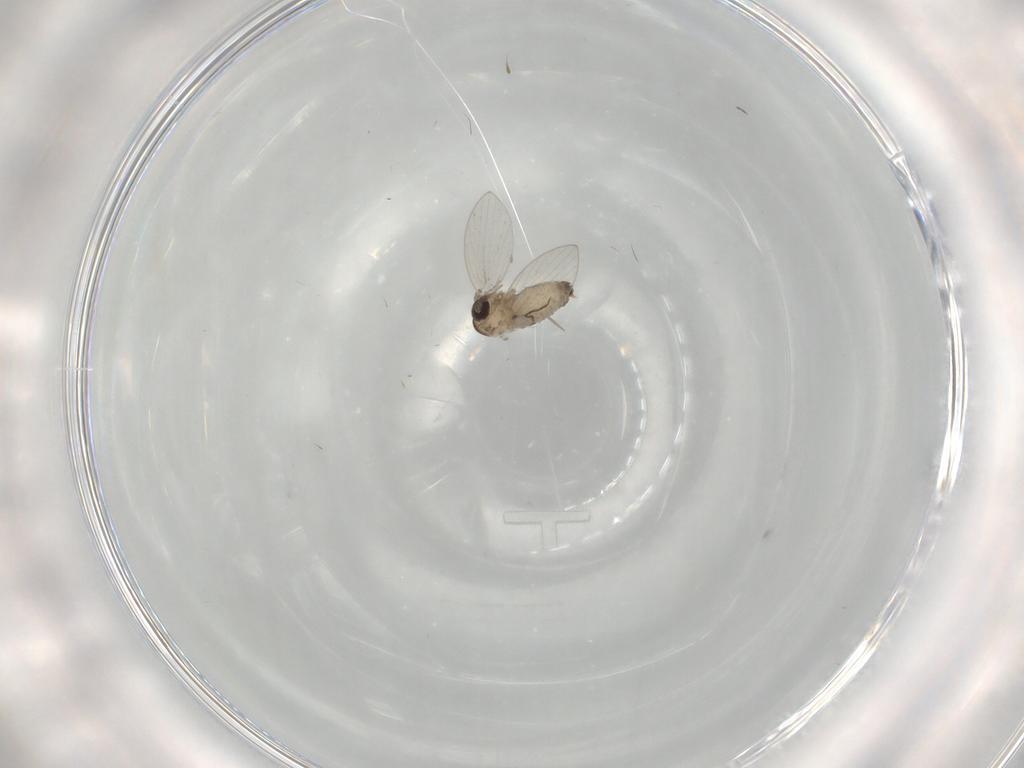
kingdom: Animalia
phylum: Arthropoda
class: Insecta
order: Diptera
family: Psychodidae
